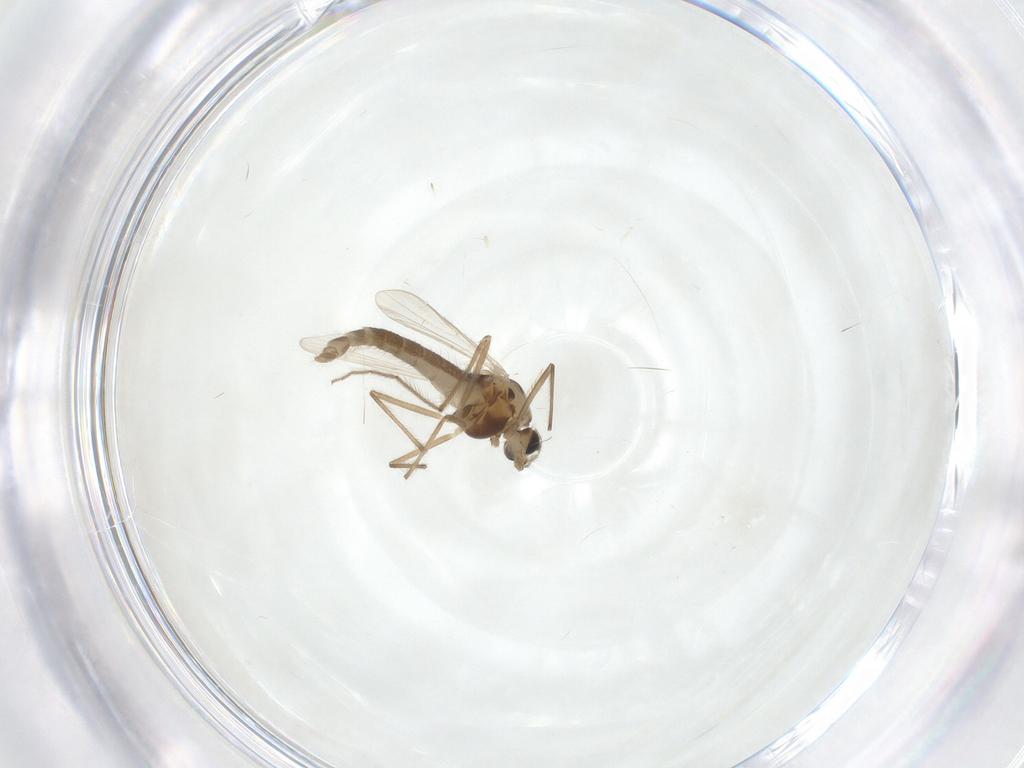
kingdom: Animalia
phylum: Arthropoda
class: Insecta
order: Diptera
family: Chironomidae
